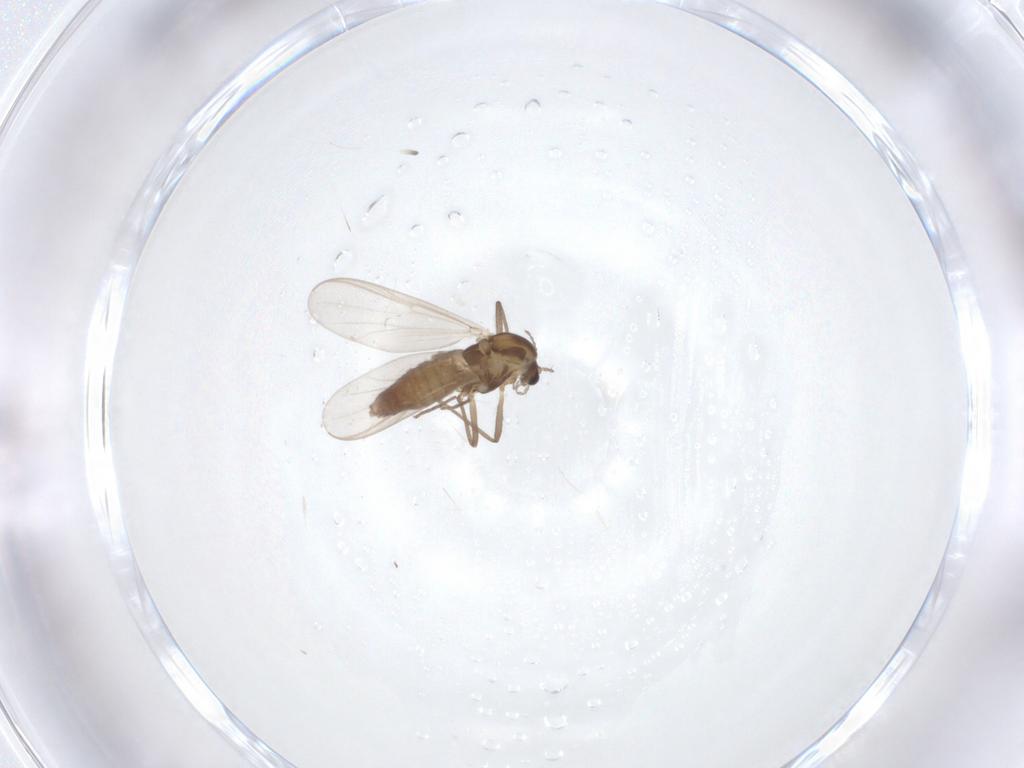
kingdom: Animalia
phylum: Arthropoda
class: Insecta
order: Diptera
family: Chironomidae
